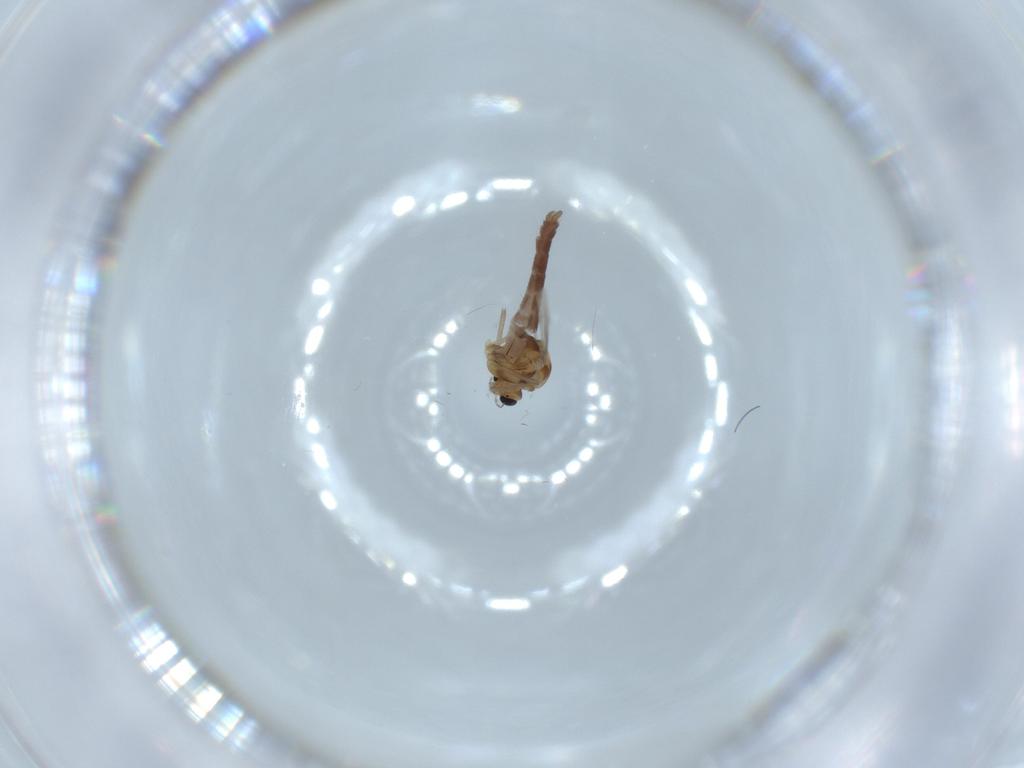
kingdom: Animalia
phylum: Arthropoda
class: Insecta
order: Diptera
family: Chironomidae
